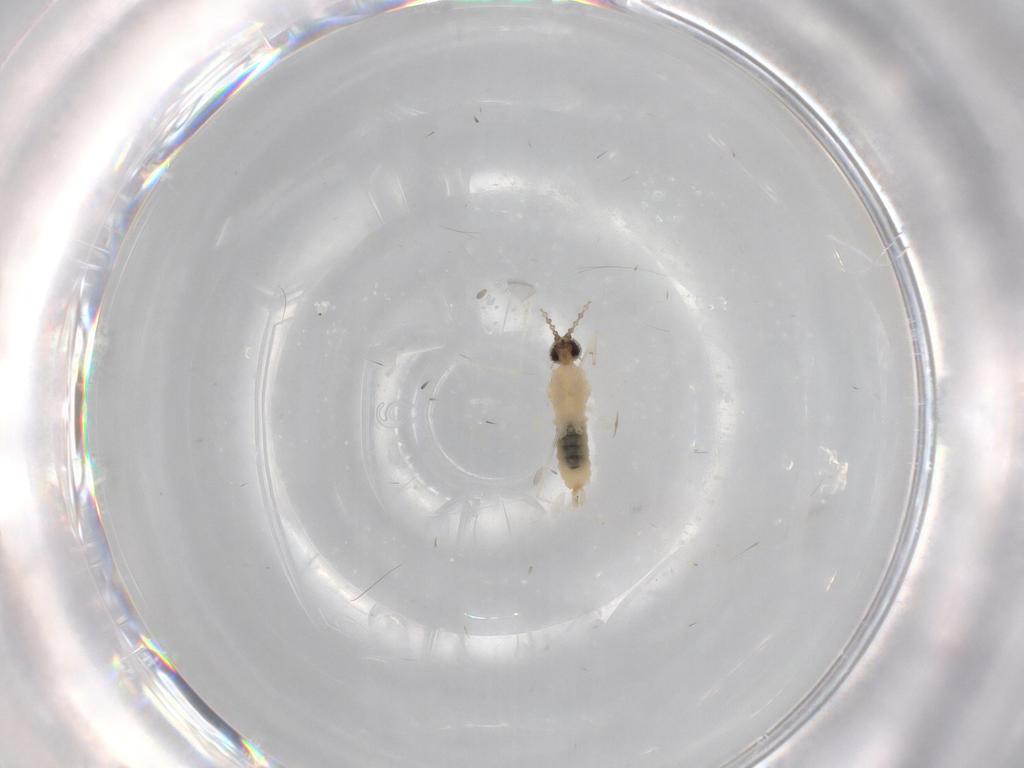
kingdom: Animalia
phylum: Arthropoda
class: Insecta
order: Diptera
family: Cecidomyiidae
